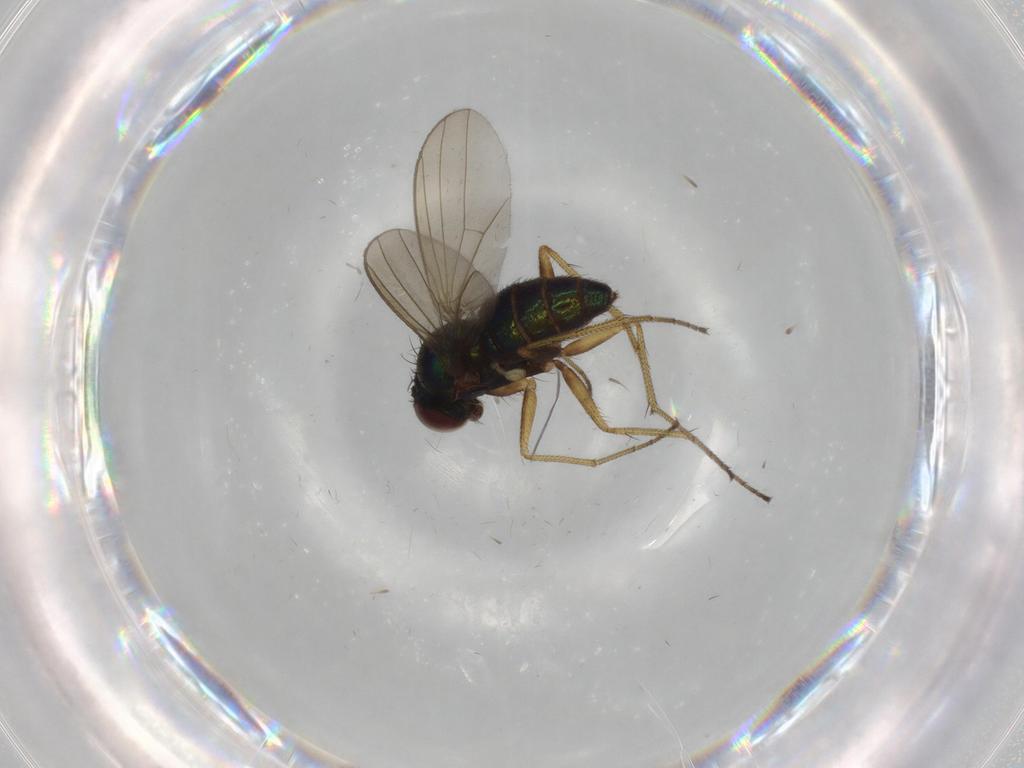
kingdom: Animalia
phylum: Arthropoda
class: Insecta
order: Diptera
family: Dolichopodidae
